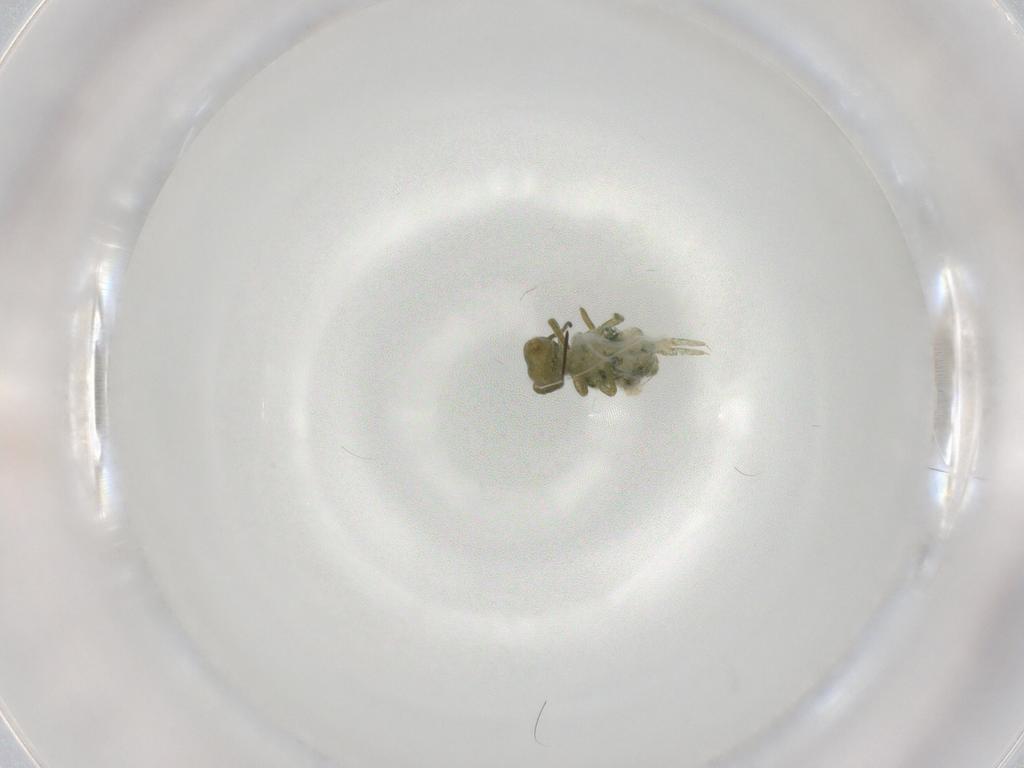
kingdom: Animalia
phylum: Arthropoda
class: Collembola
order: Symphypleona
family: Sminthuridae
